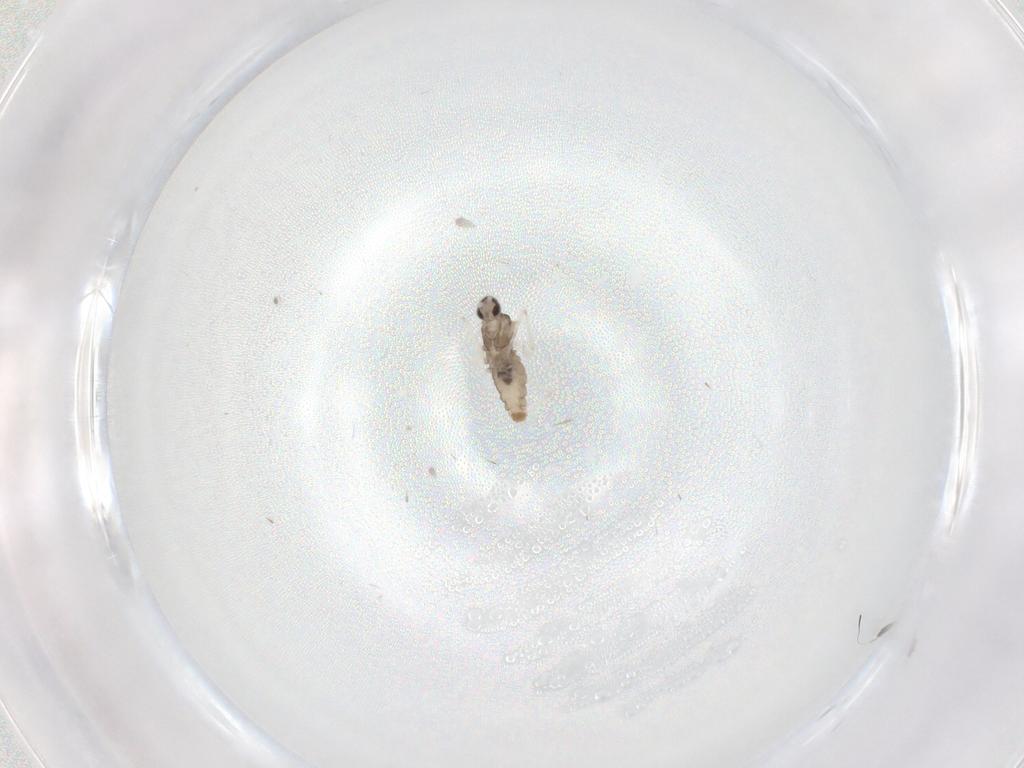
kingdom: Animalia
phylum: Arthropoda
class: Insecta
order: Diptera
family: Cecidomyiidae
